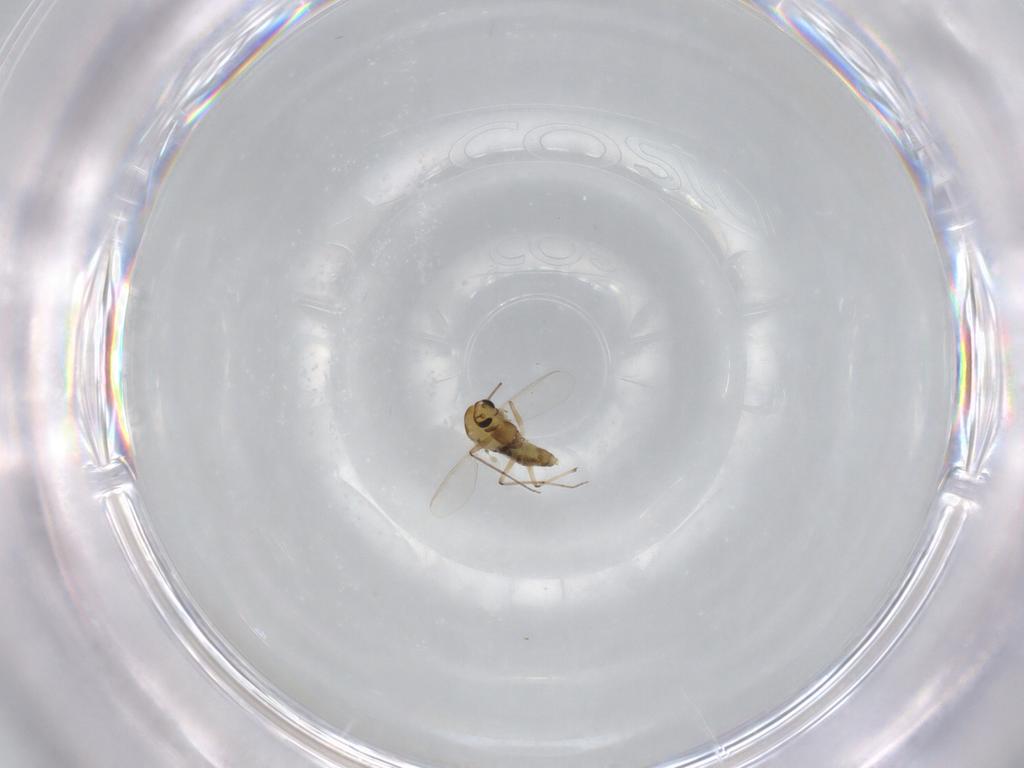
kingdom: Animalia
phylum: Arthropoda
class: Insecta
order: Diptera
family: Chironomidae
